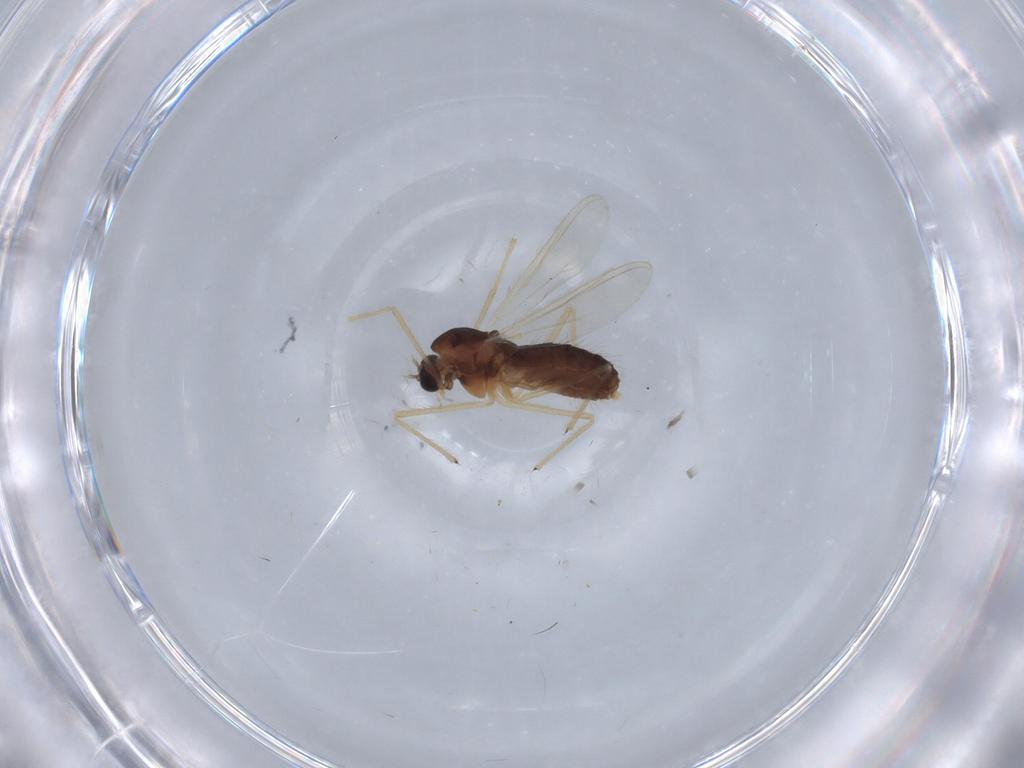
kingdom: Animalia
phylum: Arthropoda
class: Insecta
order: Diptera
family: Chironomidae
